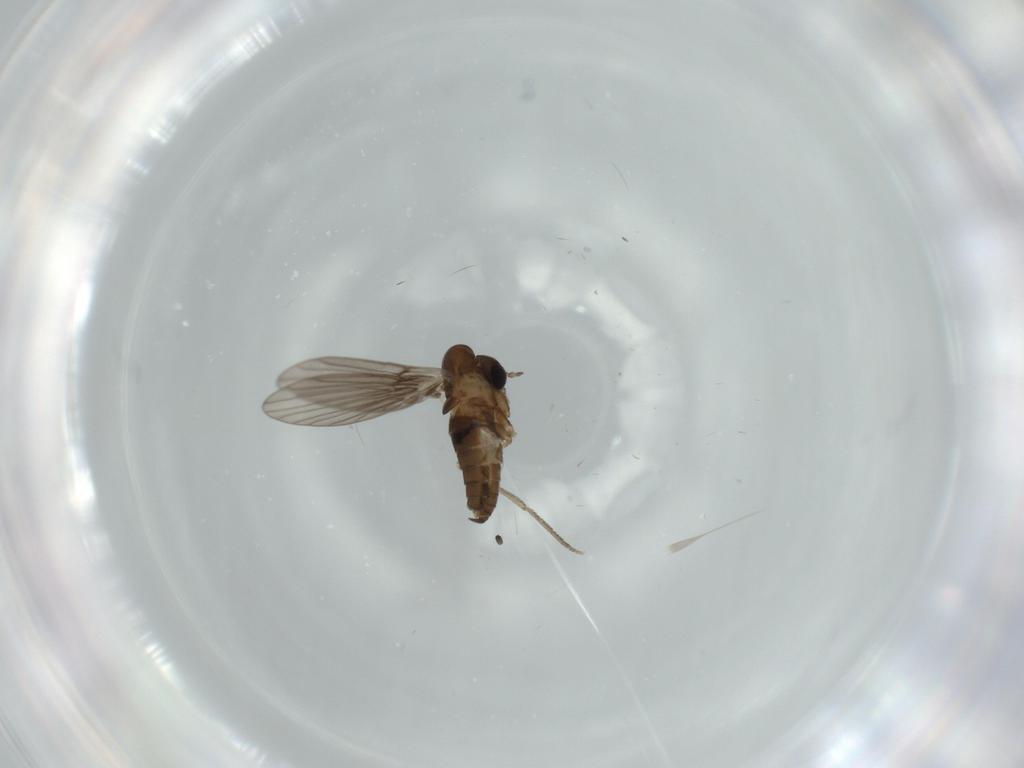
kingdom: Animalia
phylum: Arthropoda
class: Insecta
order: Diptera
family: Psychodidae
